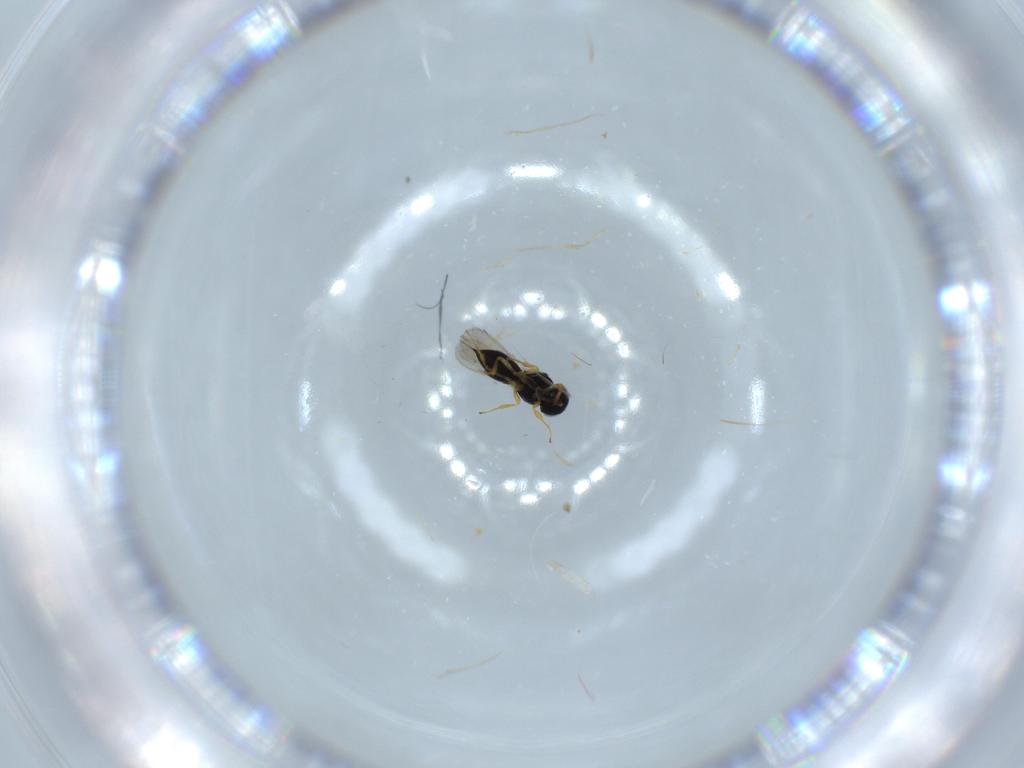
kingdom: Animalia
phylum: Arthropoda
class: Insecta
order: Hymenoptera
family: Scelionidae
